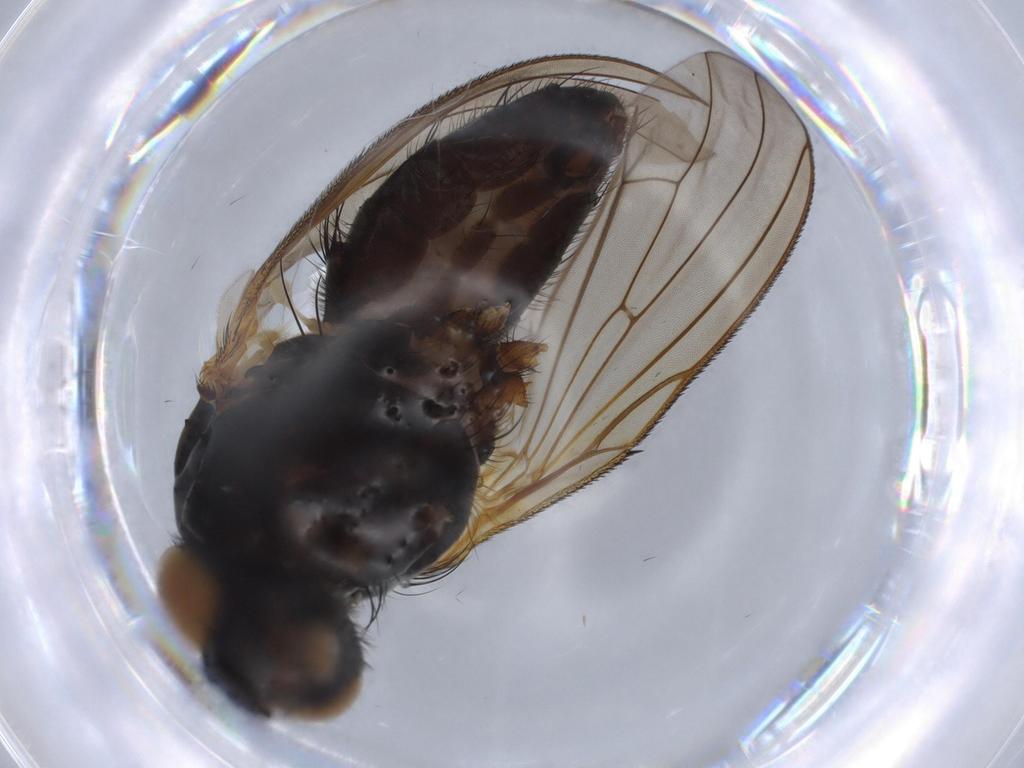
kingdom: Animalia
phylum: Arthropoda
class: Insecta
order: Diptera
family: Anthomyiidae
